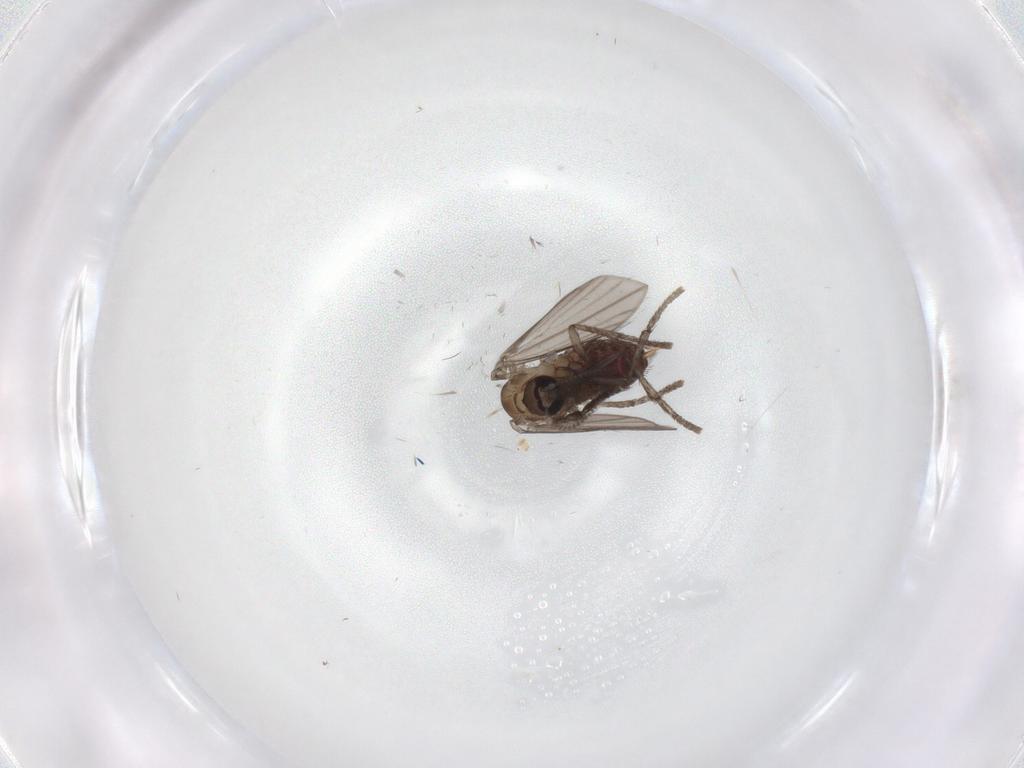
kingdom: Animalia
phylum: Arthropoda
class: Insecta
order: Diptera
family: Psychodidae
